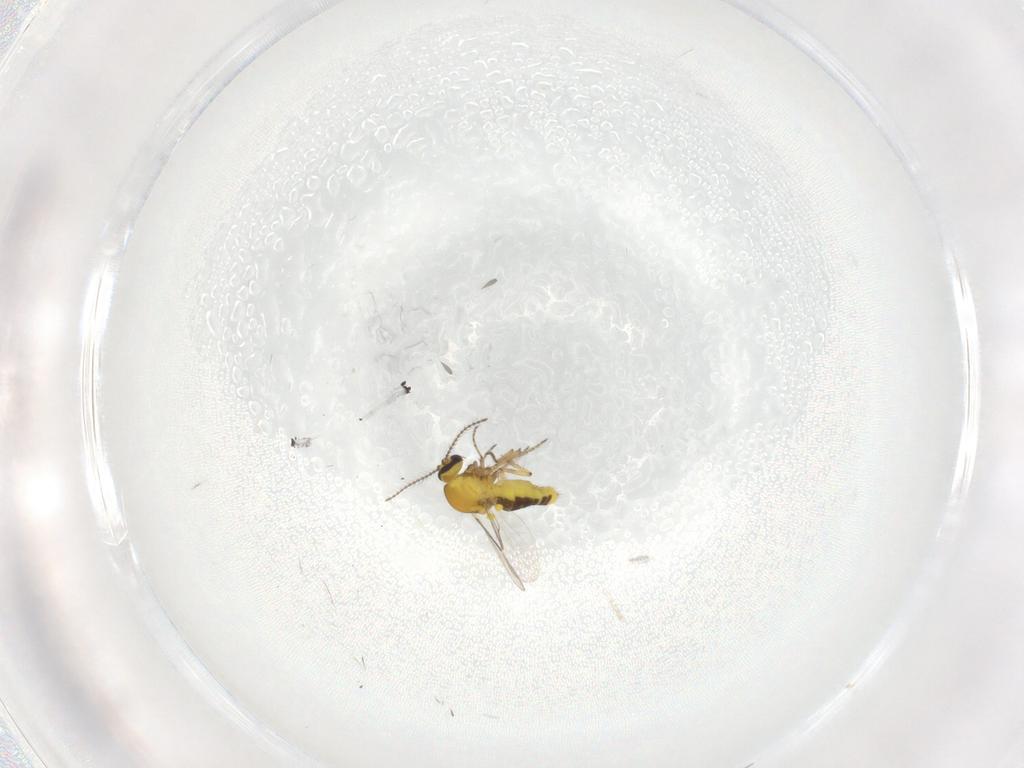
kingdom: Animalia
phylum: Arthropoda
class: Insecta
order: Diptera
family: Ceratopogonidae
